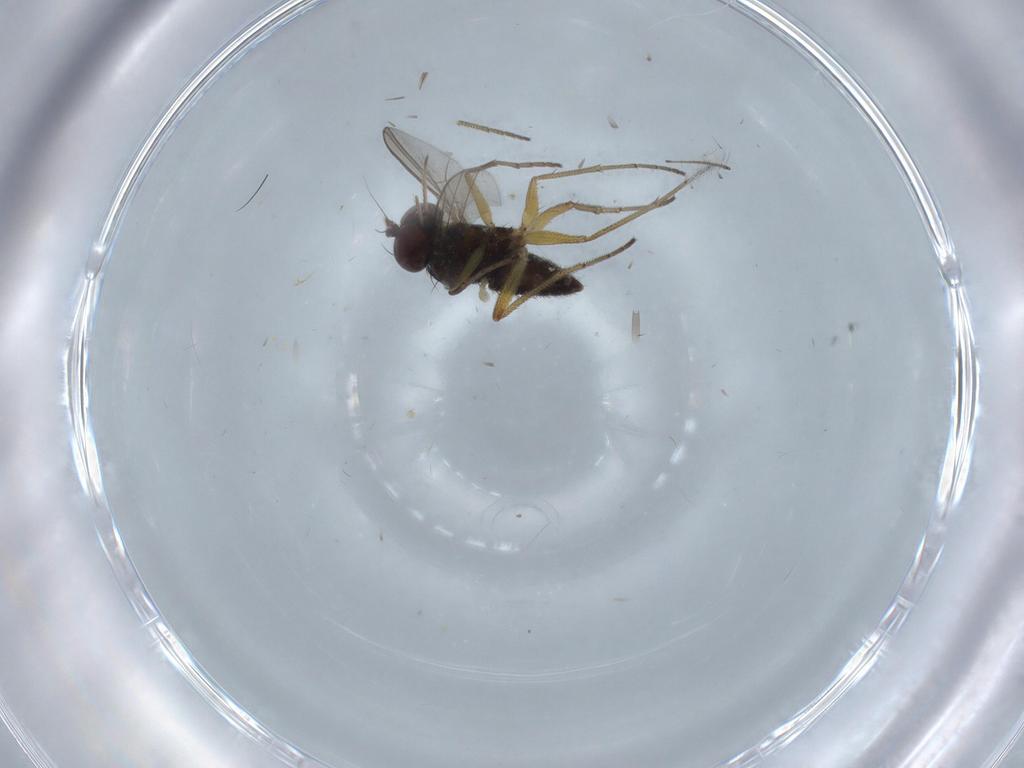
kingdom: Animalia
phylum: Arthropoda
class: Insecta
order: Diptera
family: Dolichopodidae
